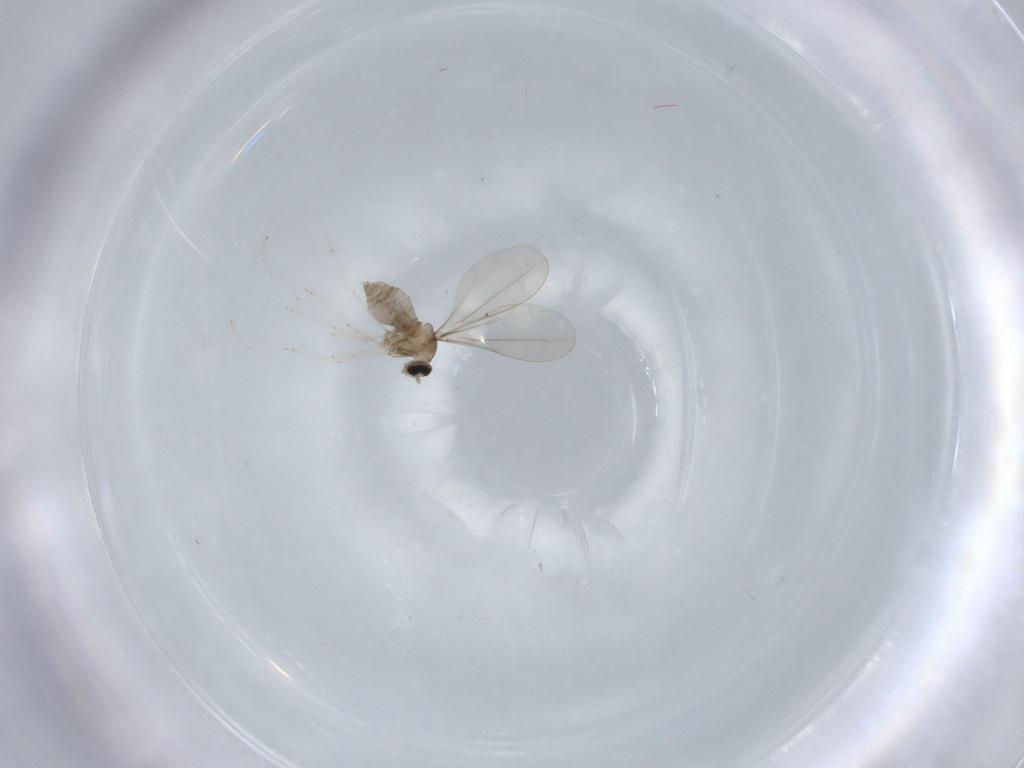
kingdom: Animalia
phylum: Arthropoda
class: Insecta
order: Diptera
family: Cecidomyiidae
